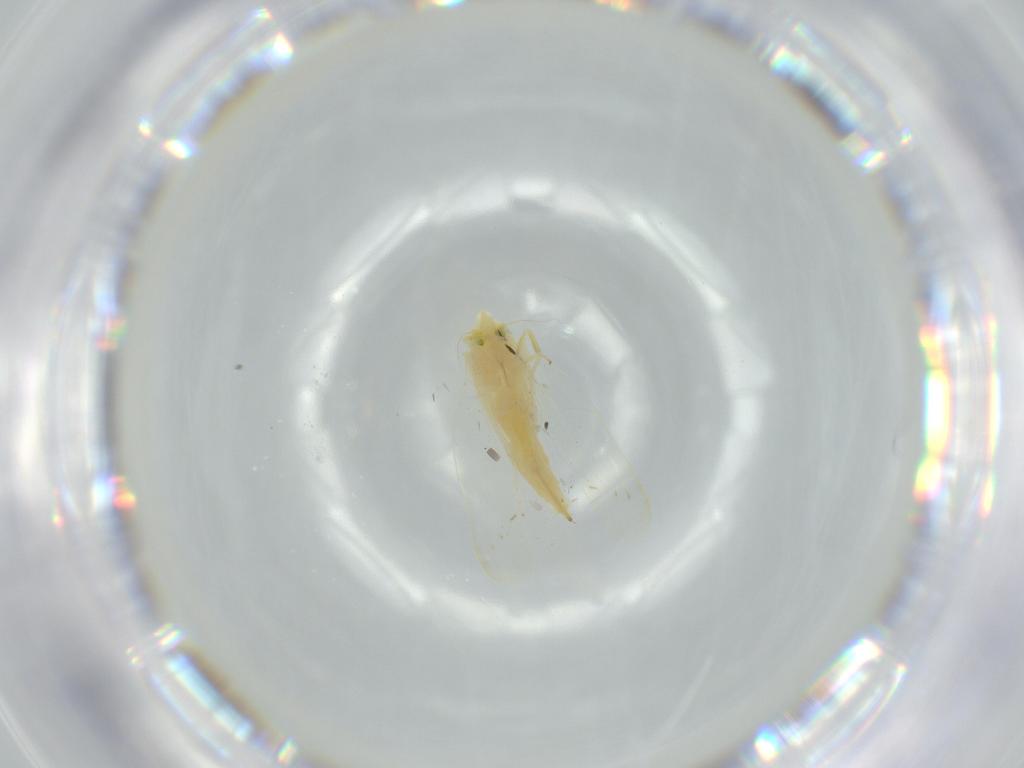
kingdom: Animalia
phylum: Arthropoda
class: Insecta
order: Hemiptera
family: Cicadellidae
